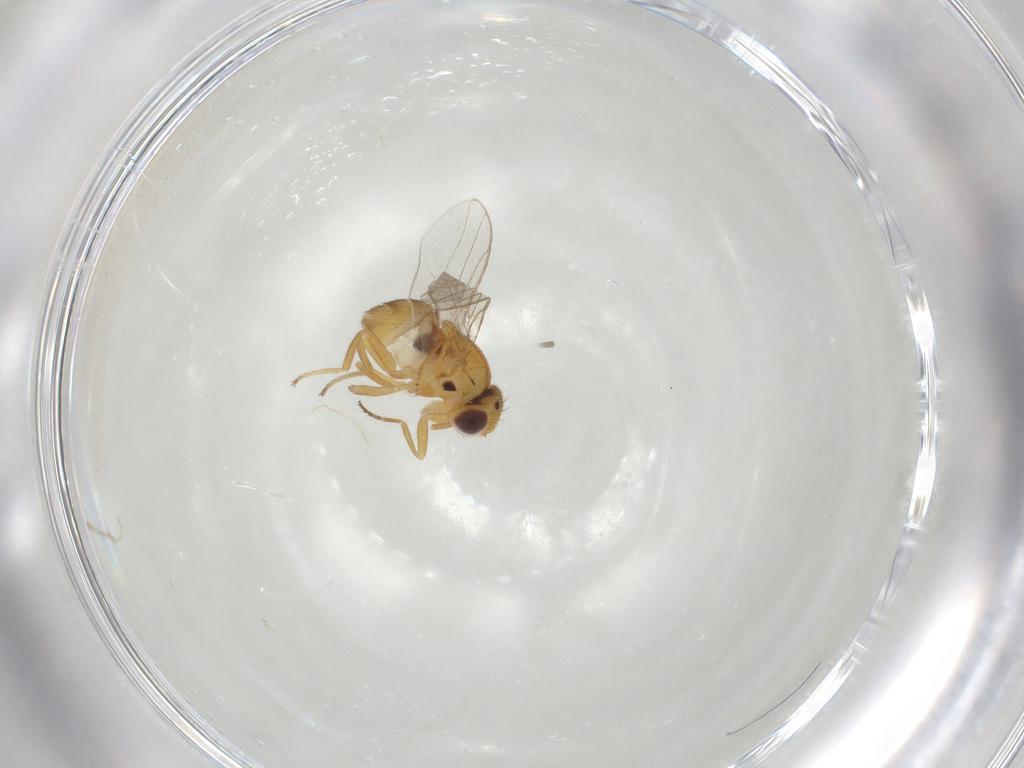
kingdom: Animalia
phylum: Arthropoda
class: Insecta
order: Diptera
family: Chloropidae
